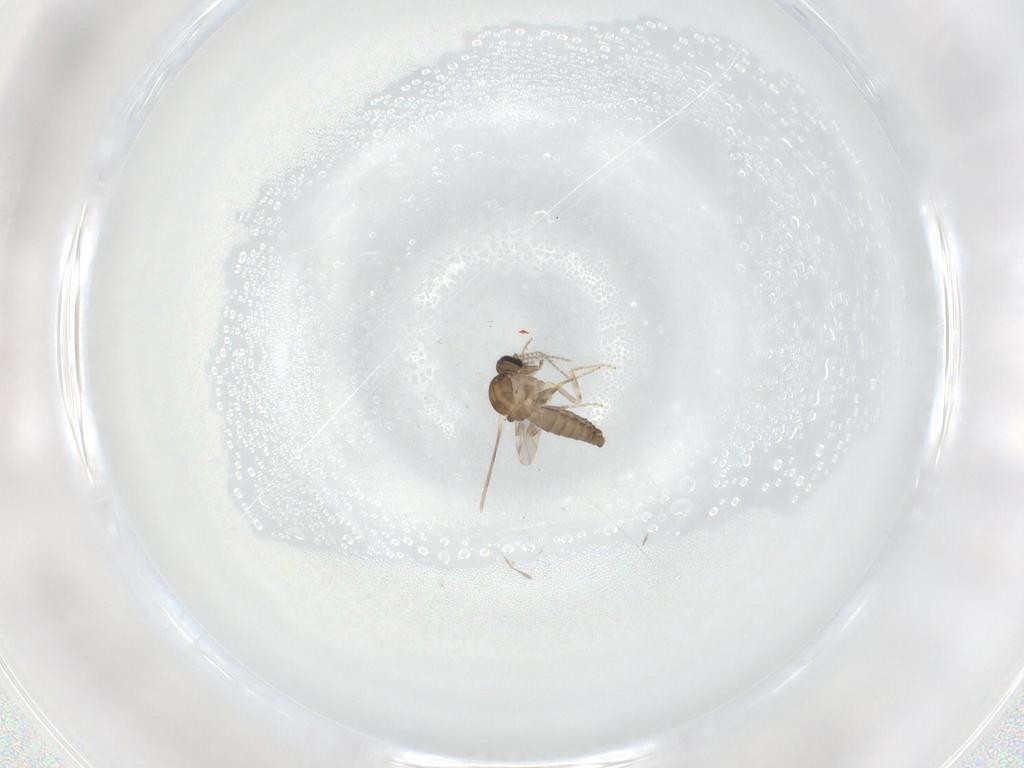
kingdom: Animalia
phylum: Arthropoda
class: Insecta
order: Diptera
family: Ceratopogonidae
